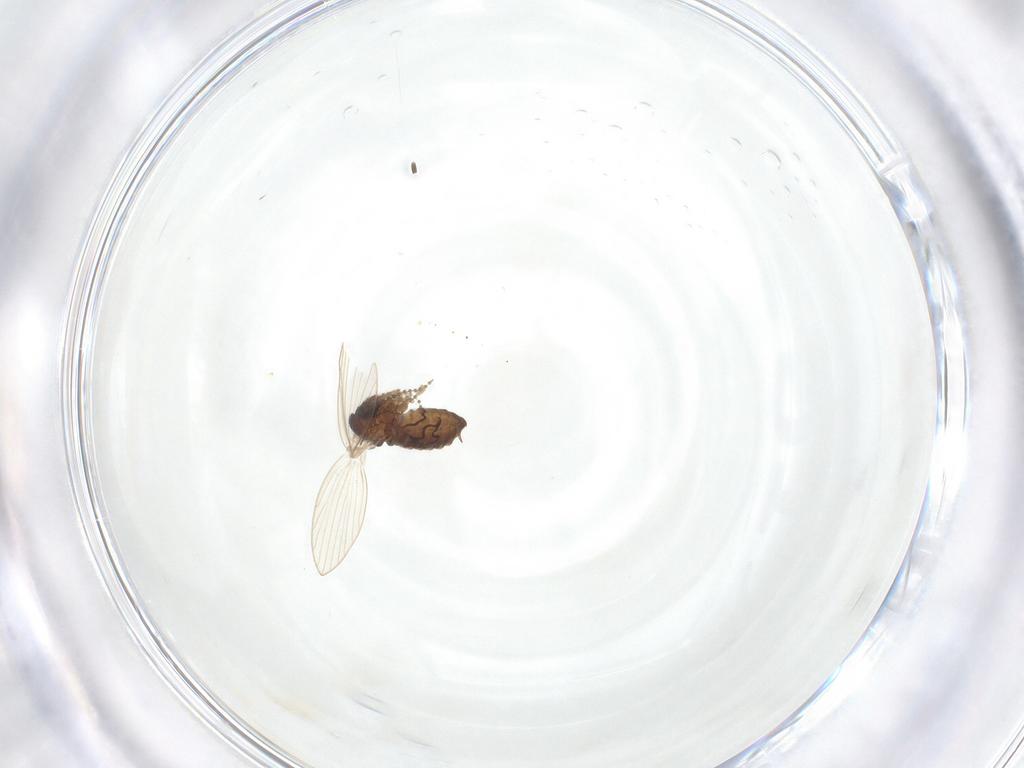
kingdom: Animalia
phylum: Arthropoda
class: Insecta
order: Diptera
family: Psychodidae
